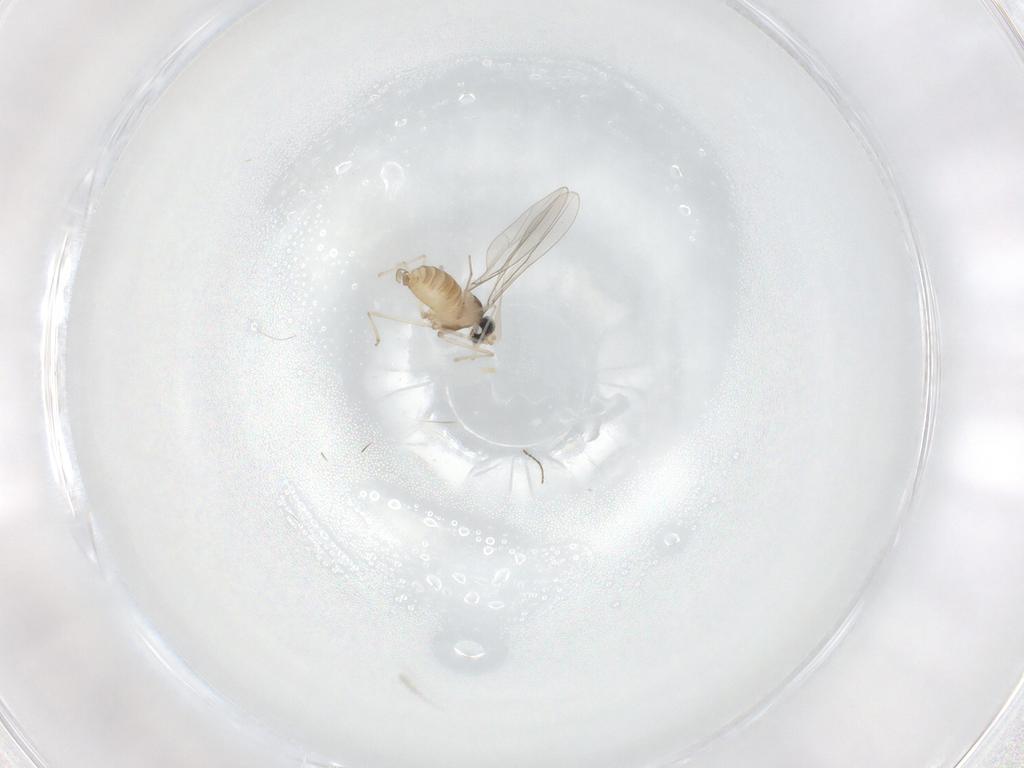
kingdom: Animalia
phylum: Arthropoda
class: Insecta
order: Diptera
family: Cecidomyiidae
